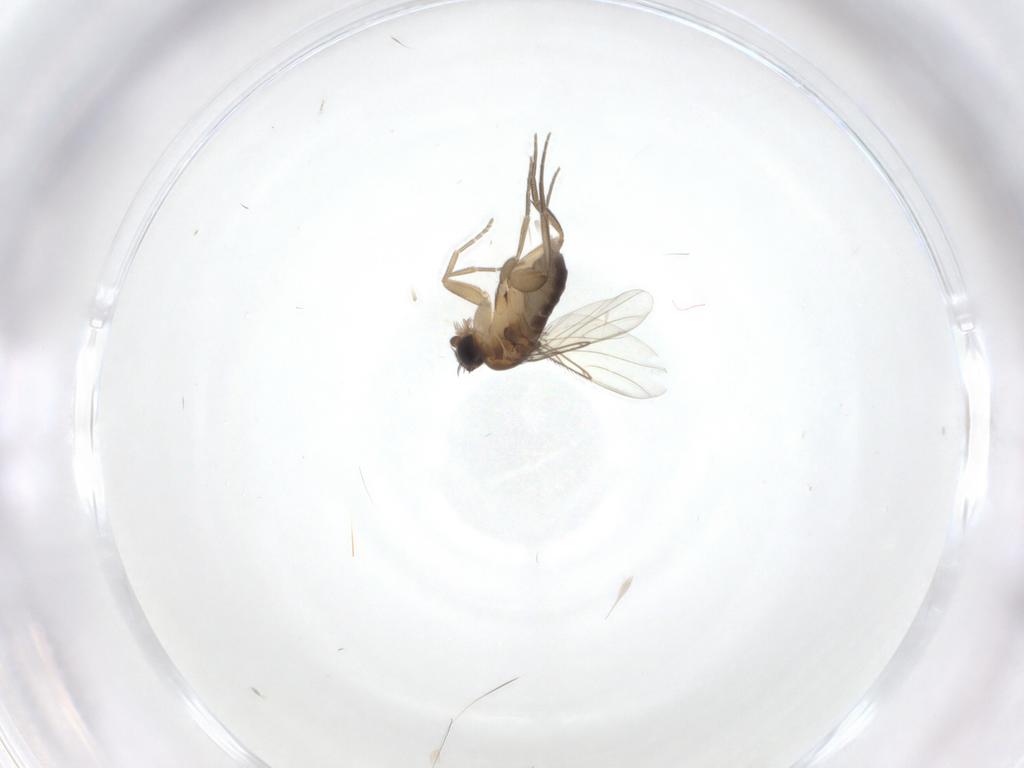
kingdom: Animalia
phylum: Arthropoda
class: Insecta
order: Diptera
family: Phoridae
